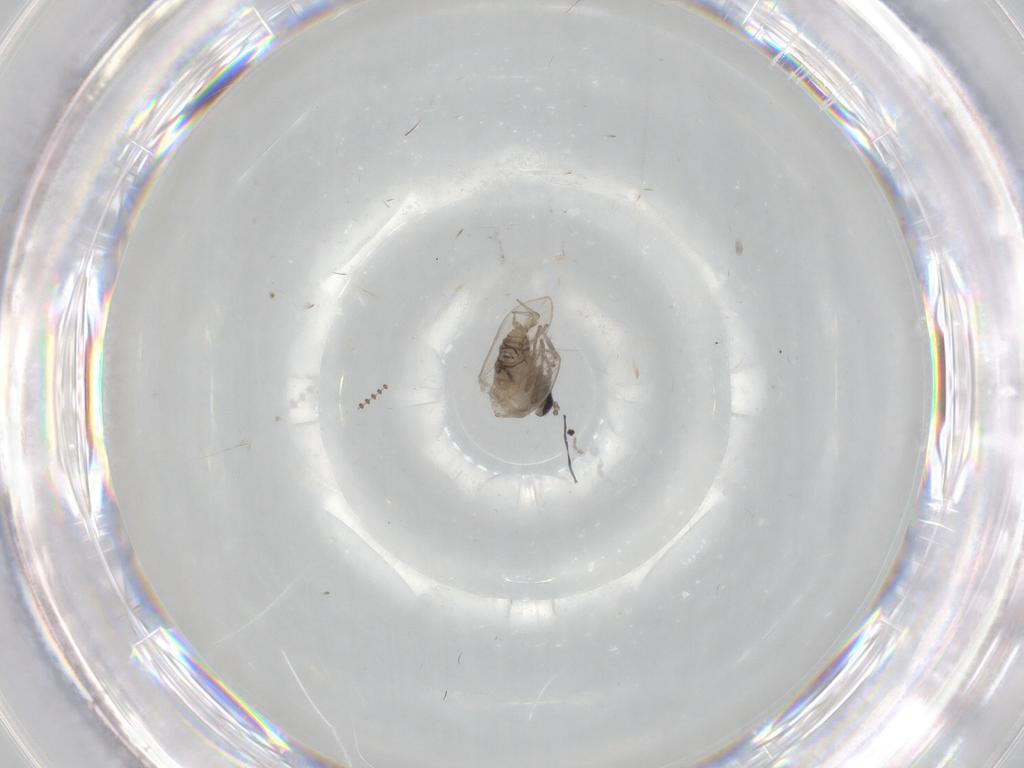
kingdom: Animalia
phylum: Arthropoda
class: Insecta
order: Diptera
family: Psychodidae
